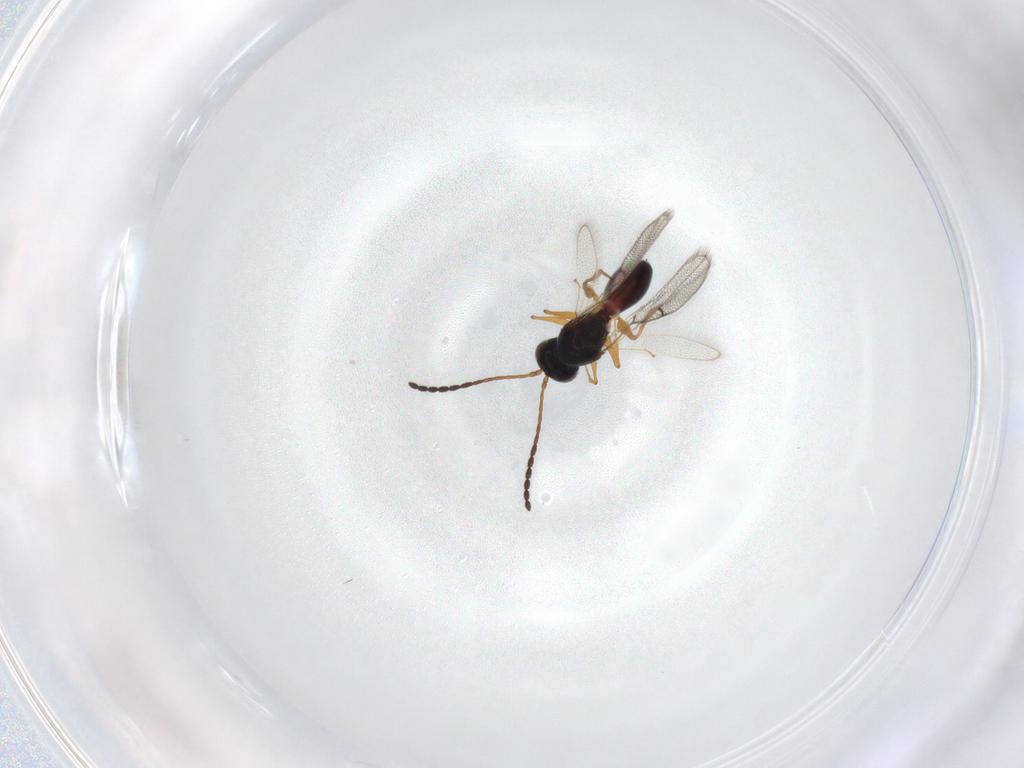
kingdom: Animalia
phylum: Arthropoda
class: Insecta
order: Hymenoptera
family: Figitidae
